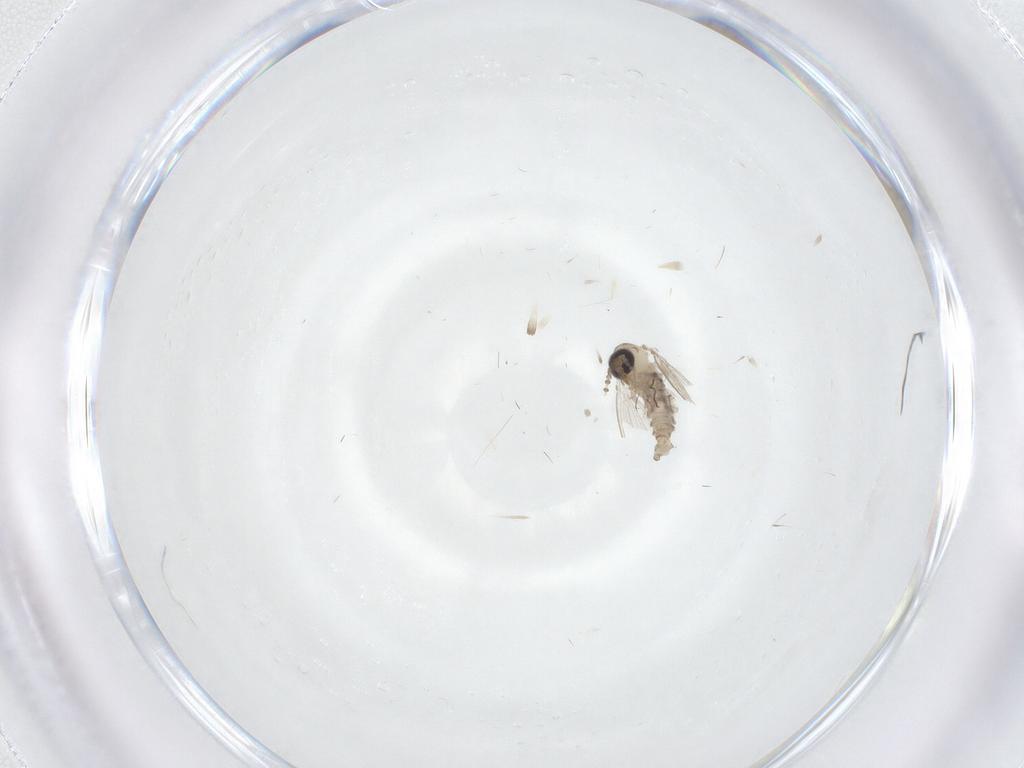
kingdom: Animalia
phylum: Arthropoda
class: Insecta
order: Diptera
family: Psychodidae
